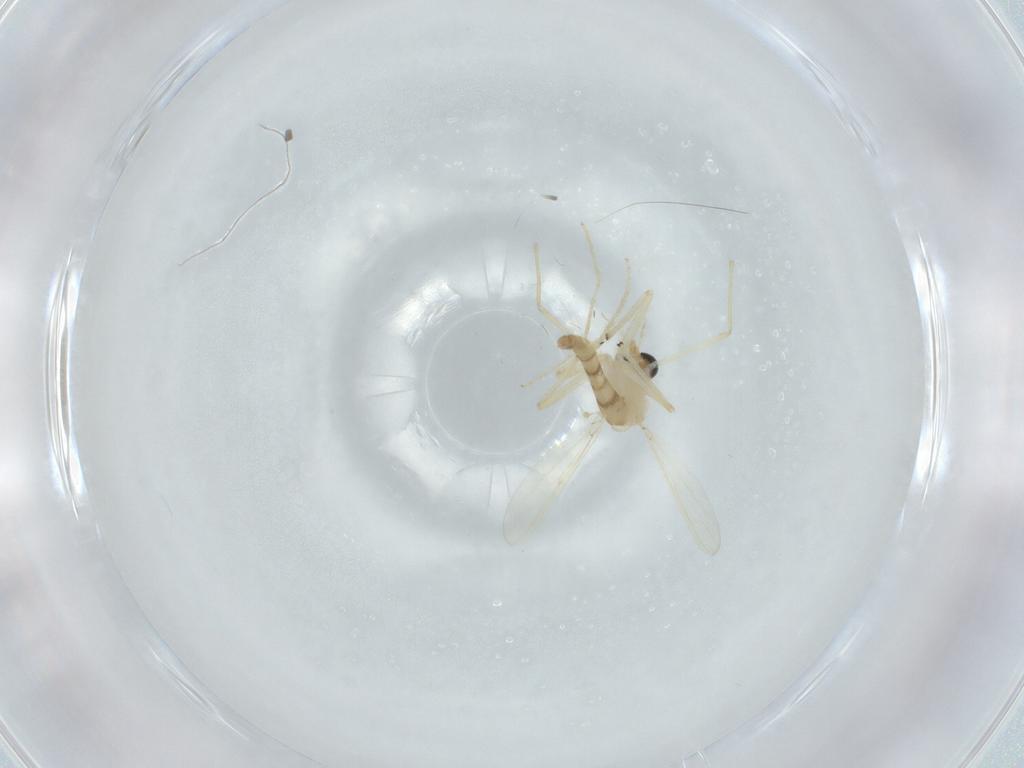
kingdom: Animalia
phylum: Arthropoda
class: Insecta
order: Diptera
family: Chironomidae
